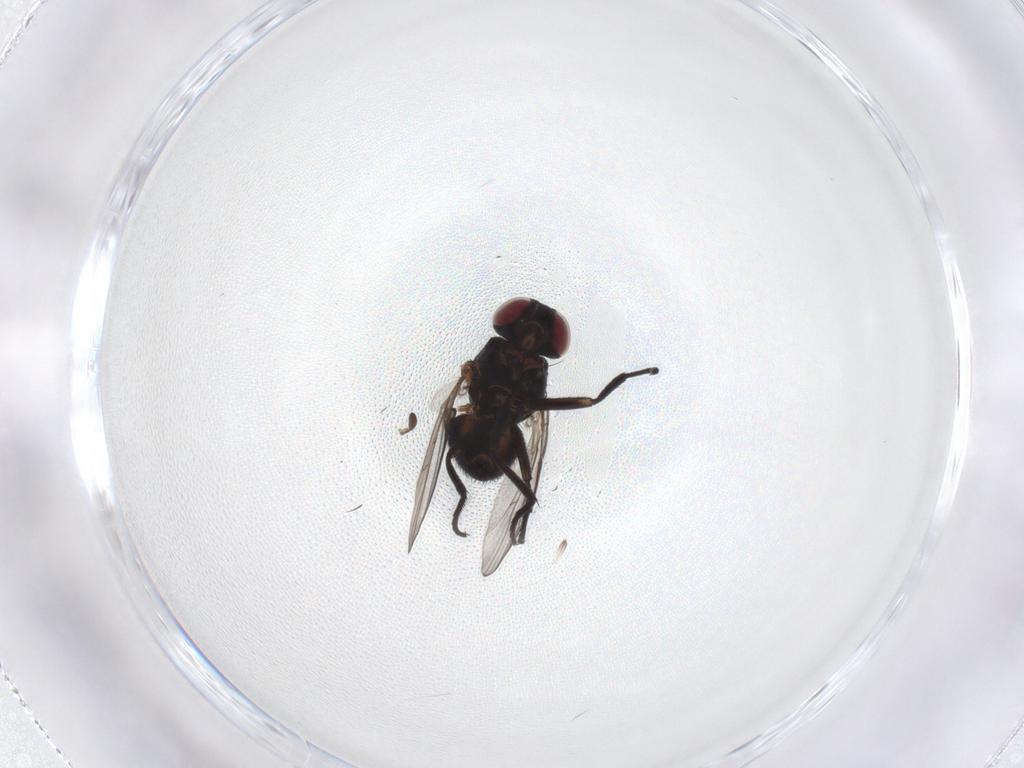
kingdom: Animalia
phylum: Arthropoda
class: Insecta
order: Diptera
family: Agromyzidae
